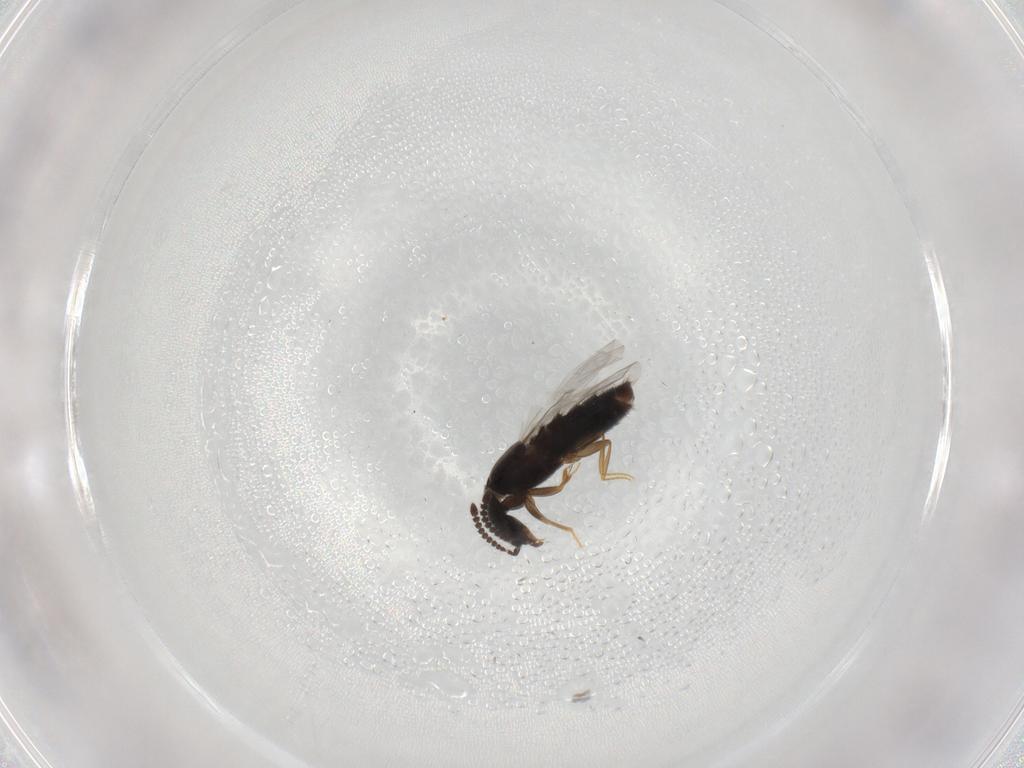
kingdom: Animalia
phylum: Arthropoda
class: Insecta
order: Coleoptera
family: Staphylinidae
